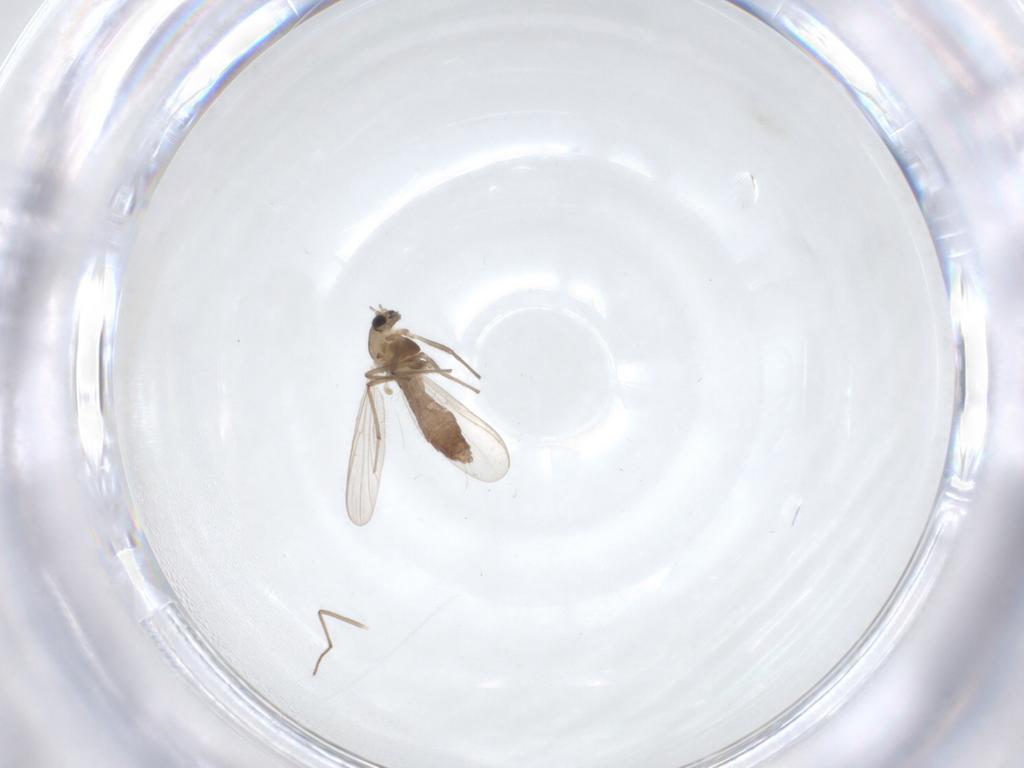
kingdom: Animalia
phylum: Arthropoda
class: Insecta
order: Diptera
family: Chironomidae
